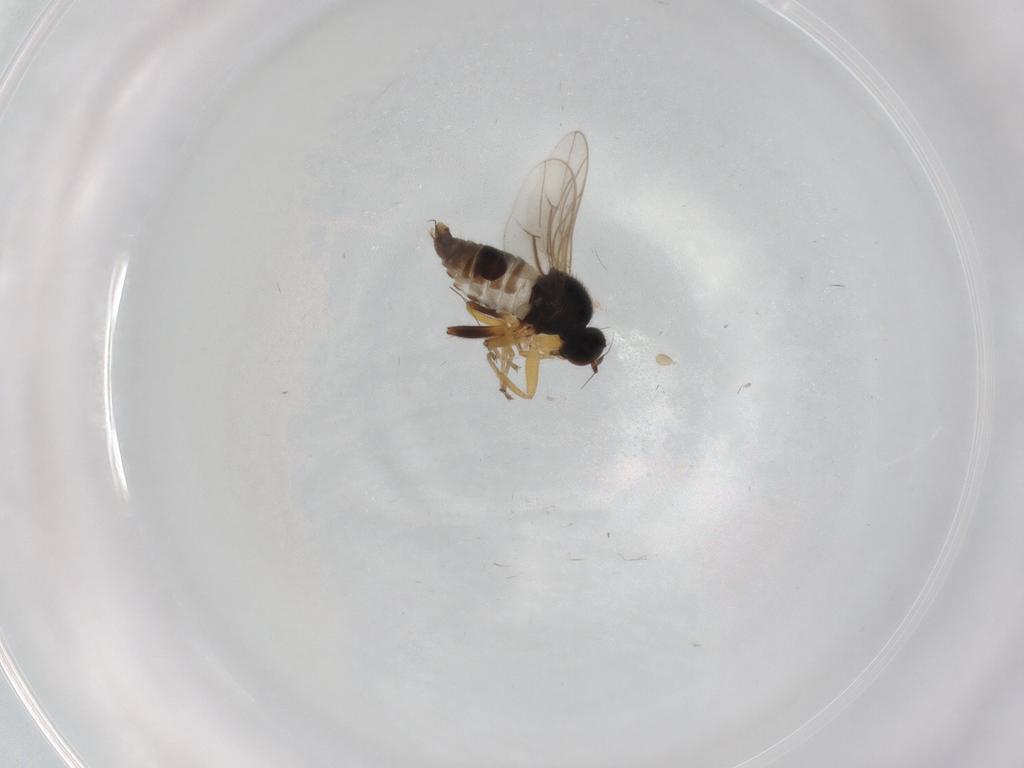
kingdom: Animalia
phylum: Arthropoda
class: Insecta
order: Diptera
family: Hybotidae
